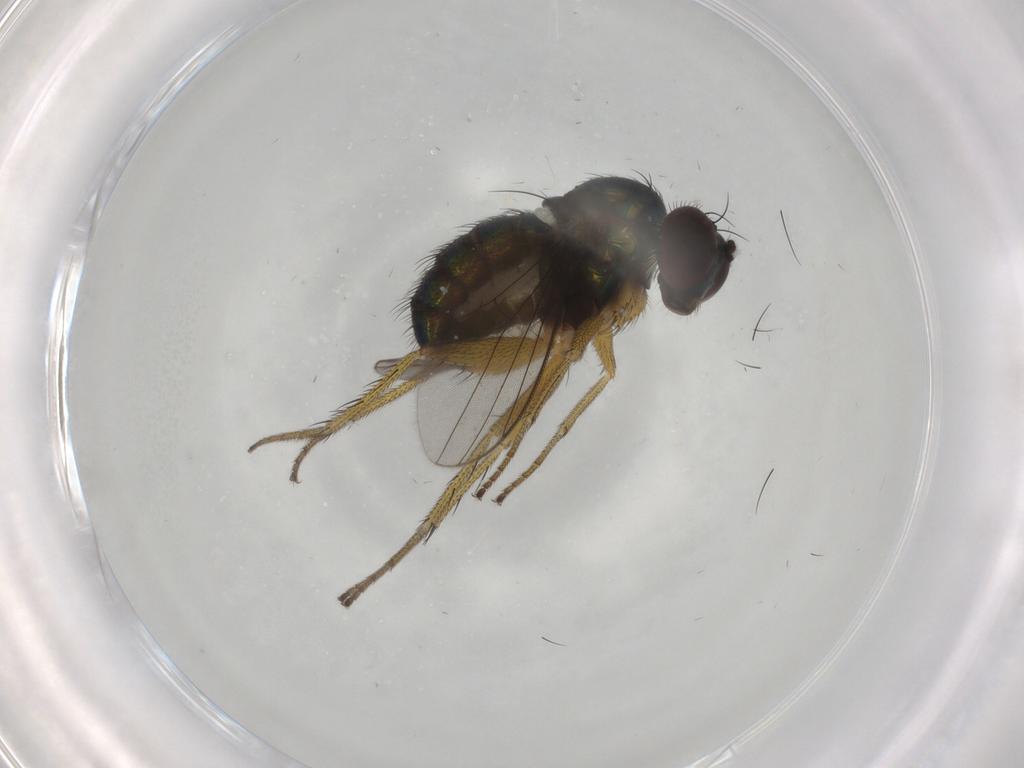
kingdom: Animalia
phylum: Arthropoda
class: Insecta
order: Diptera
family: Dolichopodidae
